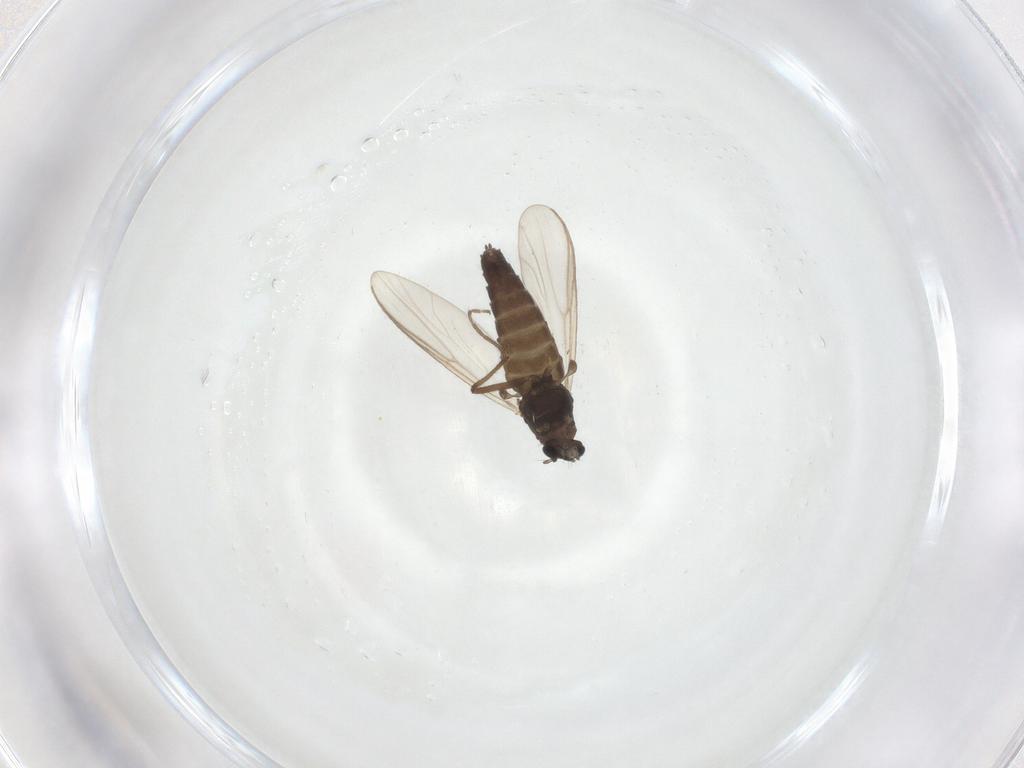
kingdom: Animalia
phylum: Arthropoda
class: Insecta
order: Diptera
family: Chironomidae
